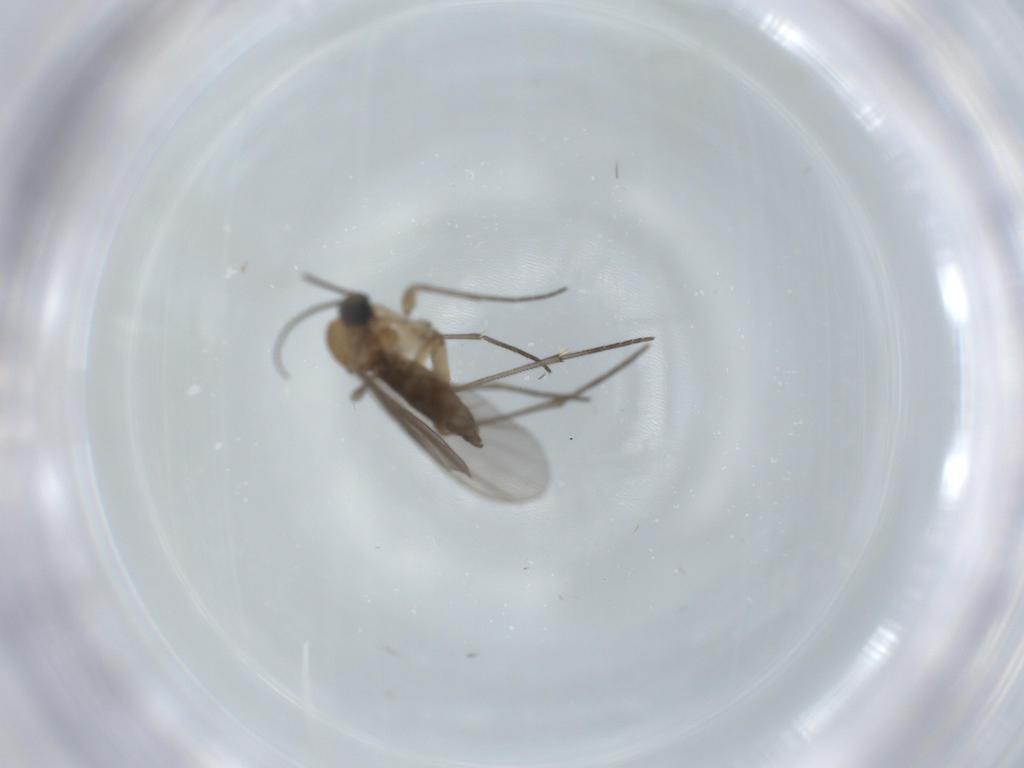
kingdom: Animalia
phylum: Arthropoda
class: Insecta
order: Diptera
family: Sciaridae
